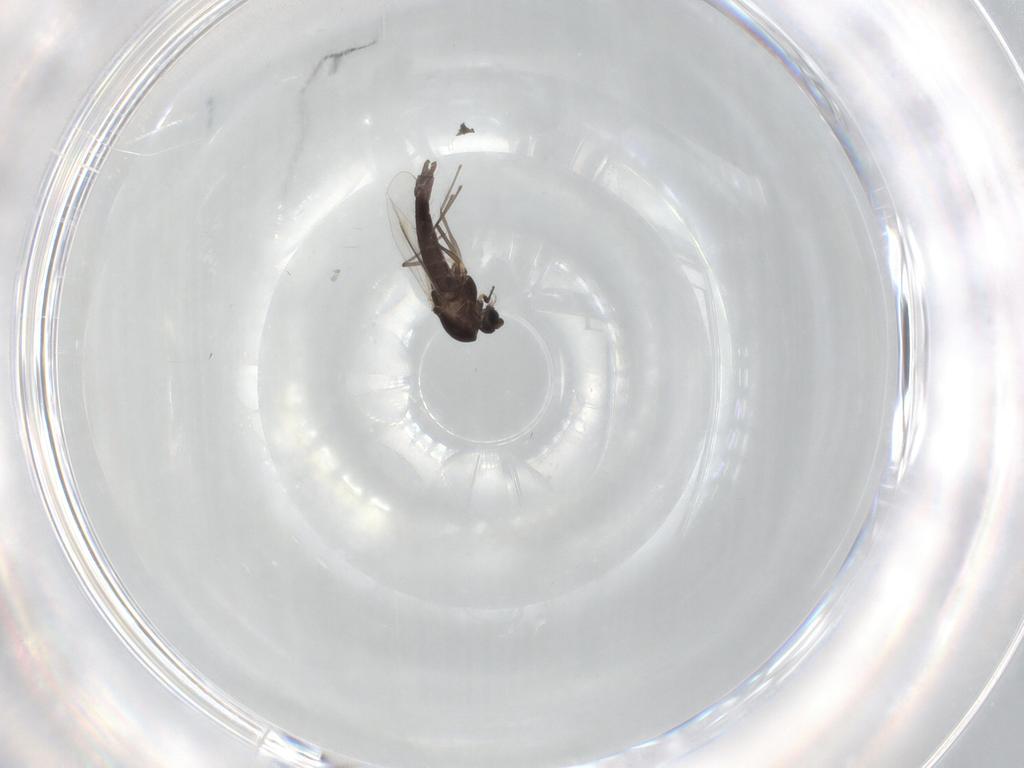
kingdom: Animalia
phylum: Arthropoda
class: Insecta
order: Diptera
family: Chironomidae
